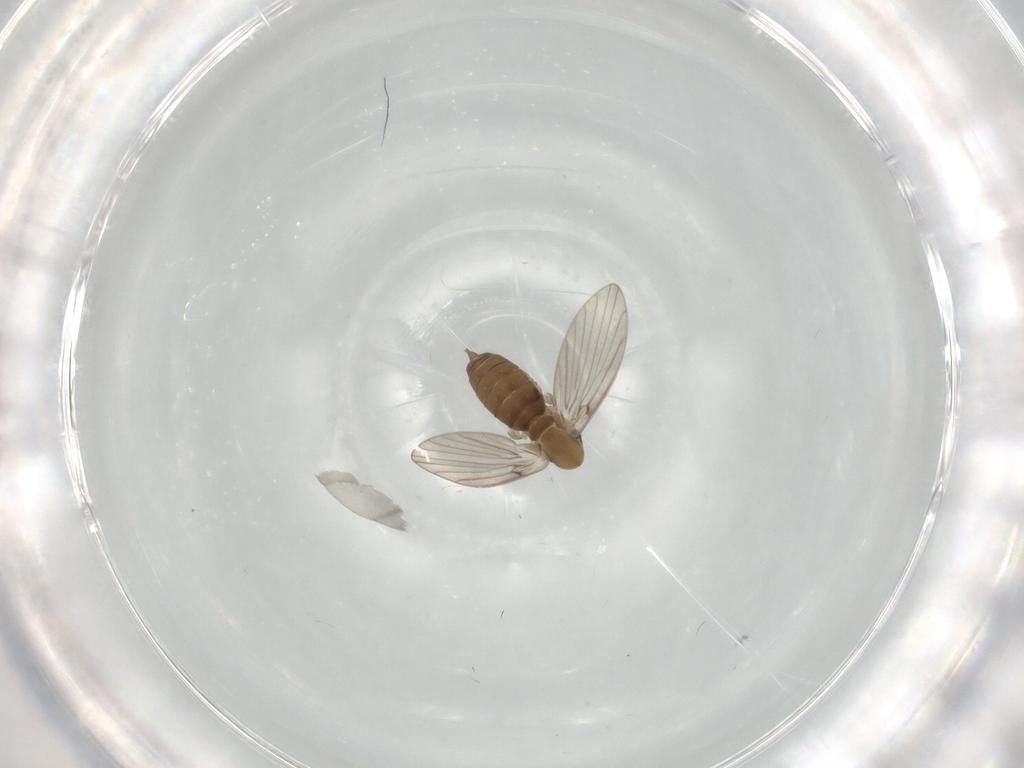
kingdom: Animalia
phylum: Arthropoda
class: Insecta
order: Diptera
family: Psychodidae
